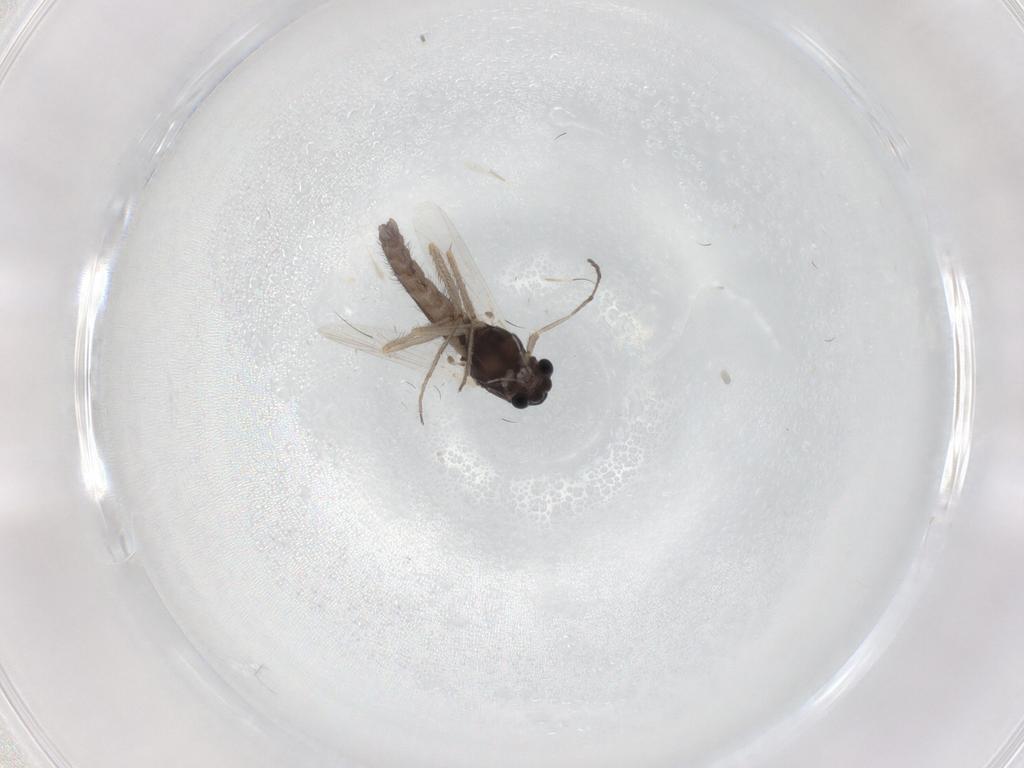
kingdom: Animalia
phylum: Arthropoda
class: Insecta
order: Diptera
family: Chironomidae
